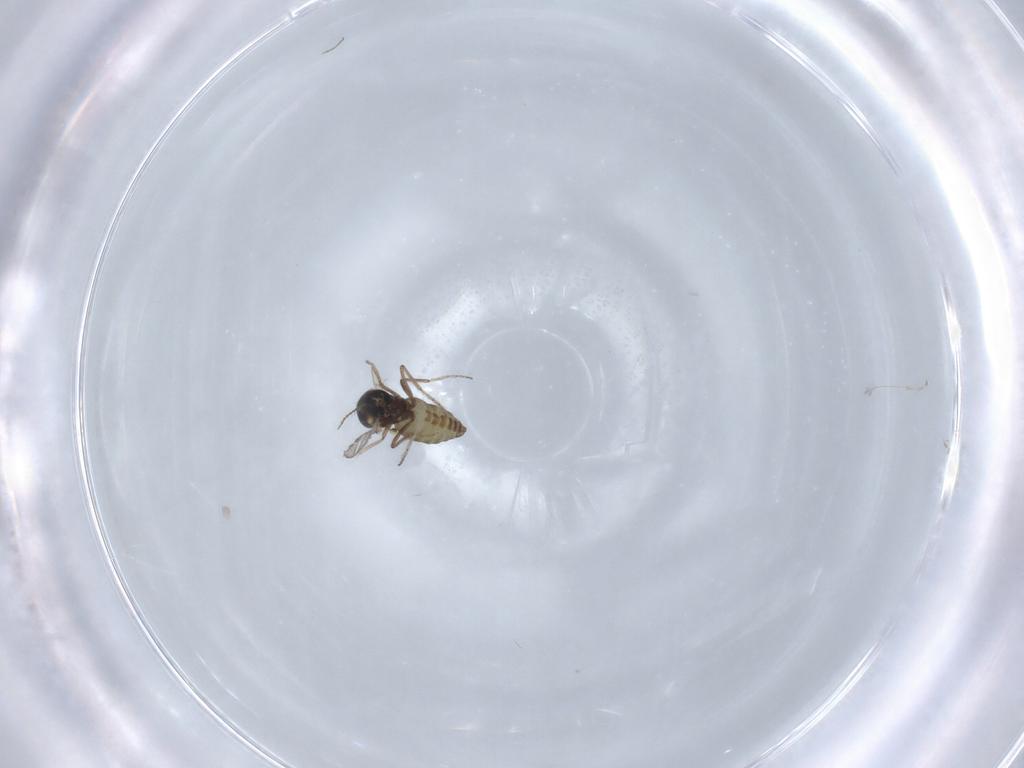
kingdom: Animalia
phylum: Arthropoda
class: Insecta
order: Diptera
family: Ceratopogonidae
